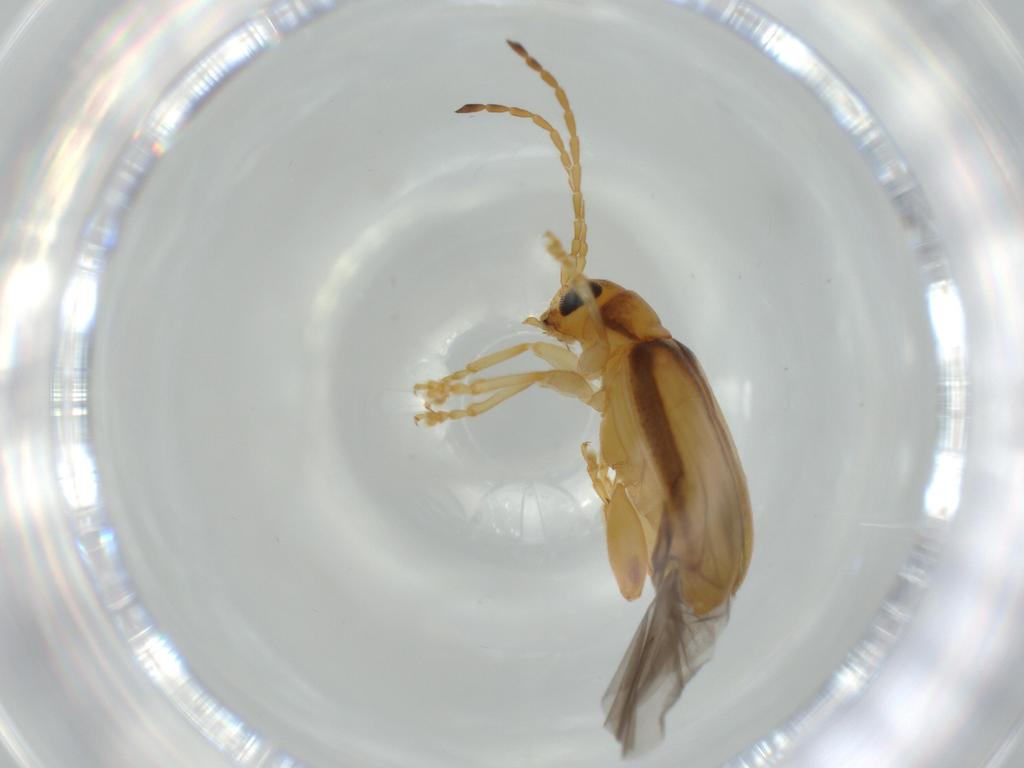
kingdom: Animalia
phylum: Arthropoda
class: Insecta
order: Coleoptera
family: Chrysomelidae
